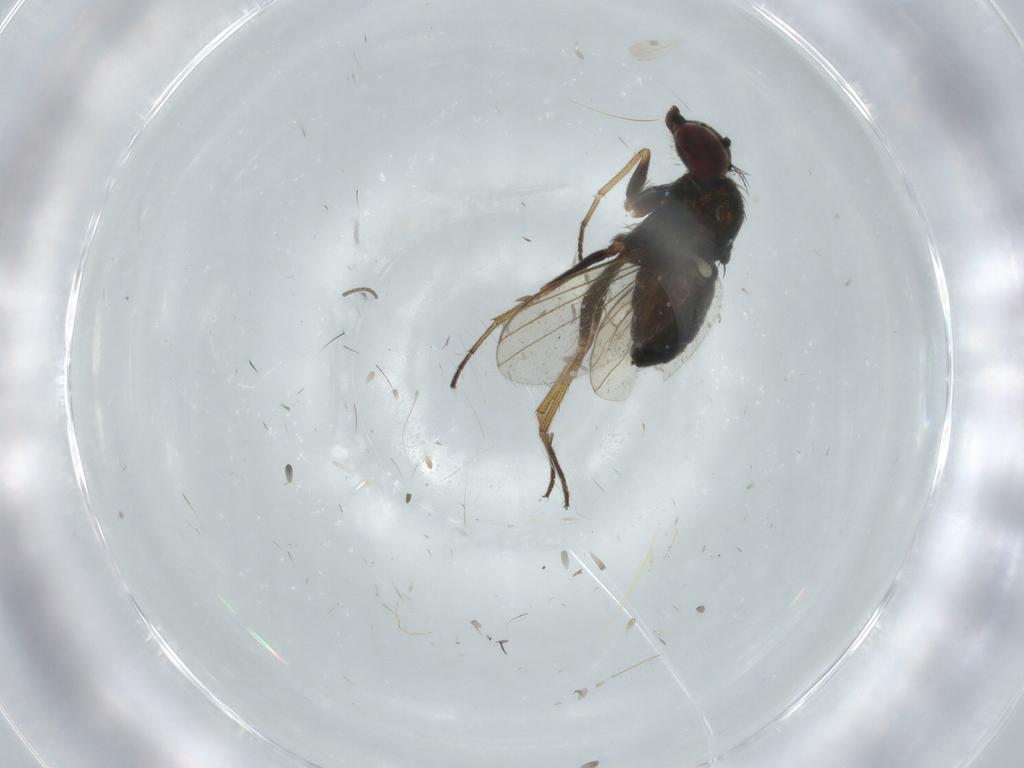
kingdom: Animalia
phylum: Arthropoda
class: Insecta
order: Diptera
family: Dolichopodidae
